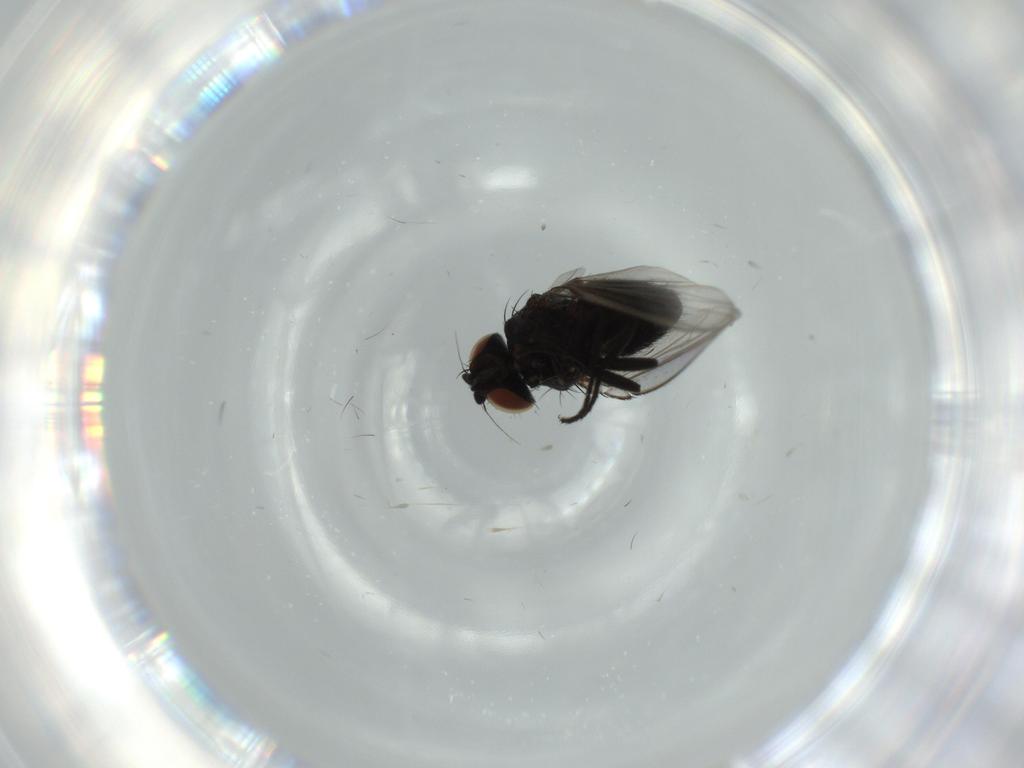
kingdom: Animalia
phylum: Arthropoda
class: Insecta
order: Diptera
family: Milichiidae
